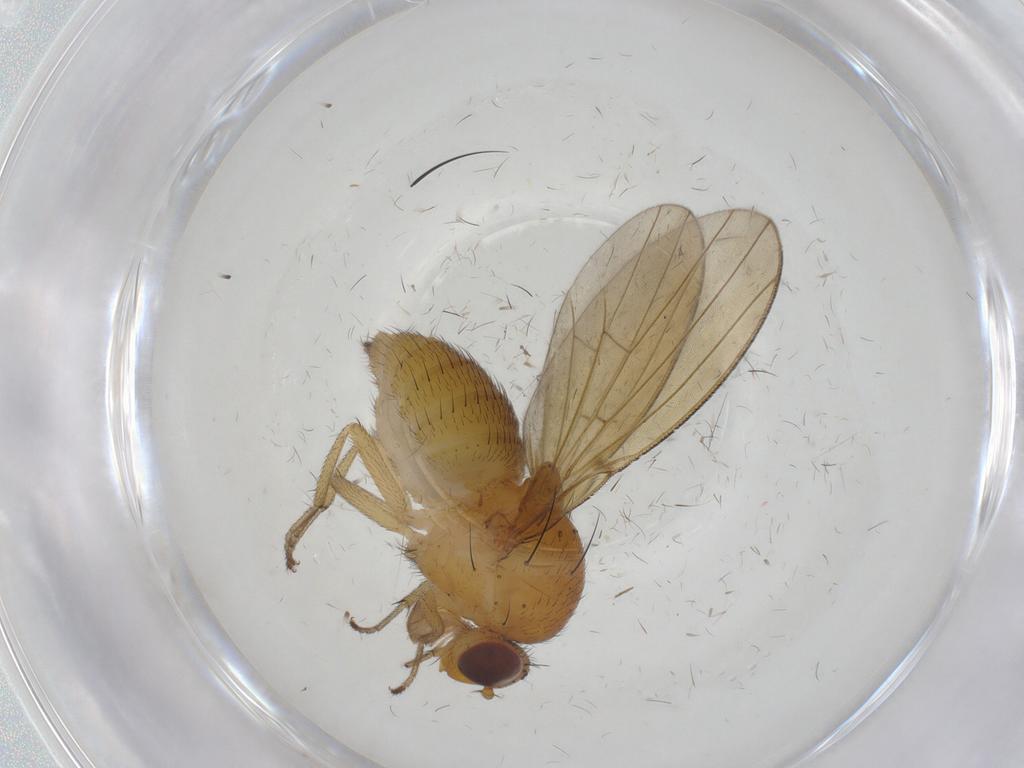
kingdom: Animalia
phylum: Arthropoda
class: Insecta
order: Diptera
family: Lauxaniidae
